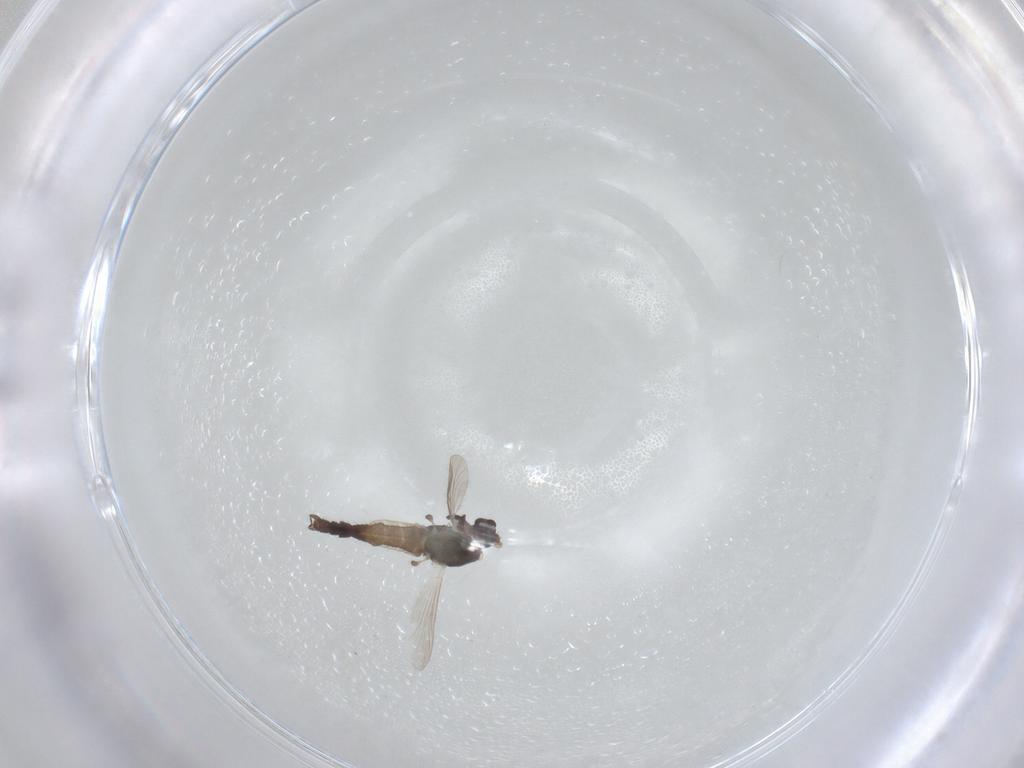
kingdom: Animalia
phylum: Arthropoda
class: Insecta
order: Diptera
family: Chironomidae
